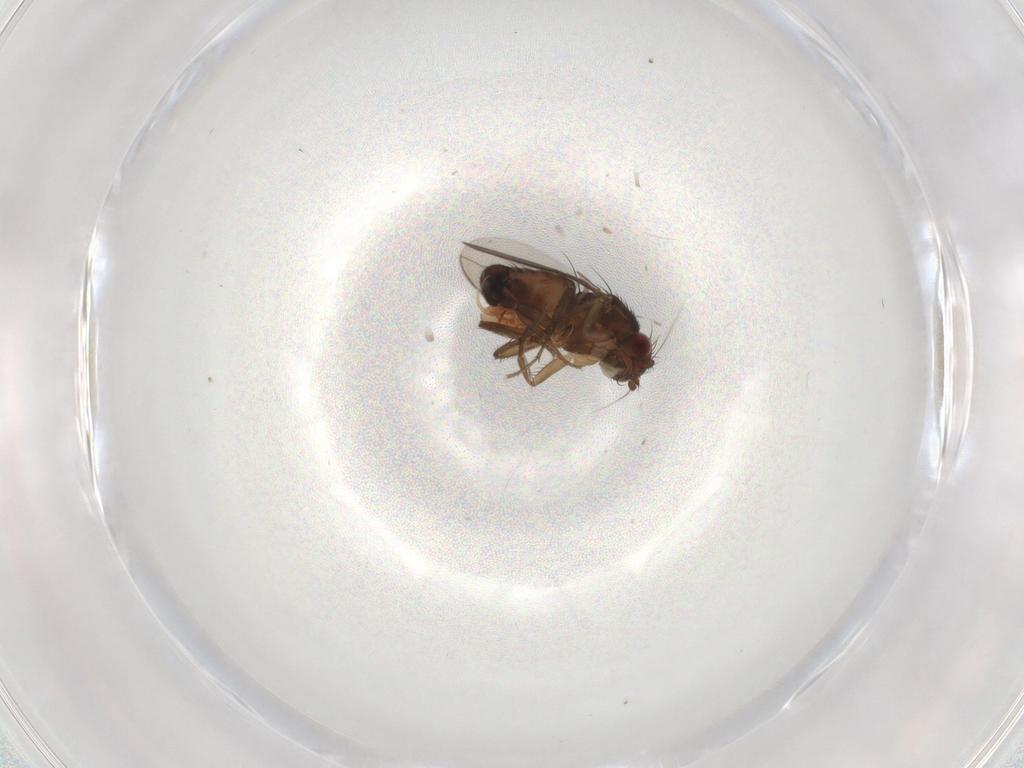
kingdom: Animalia
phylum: Arthropoda
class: Insecta
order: Diptera
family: Sphaeroceridae
